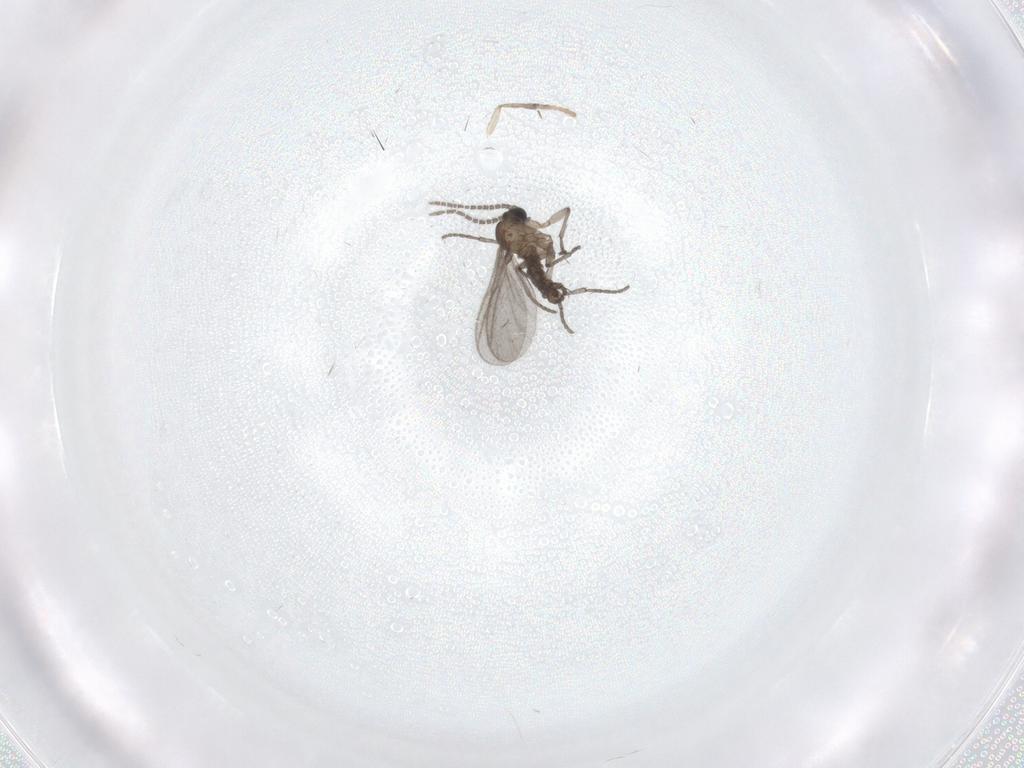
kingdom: Animalia
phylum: Arthropoda
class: Insecta
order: Diptera
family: Sciaridae
